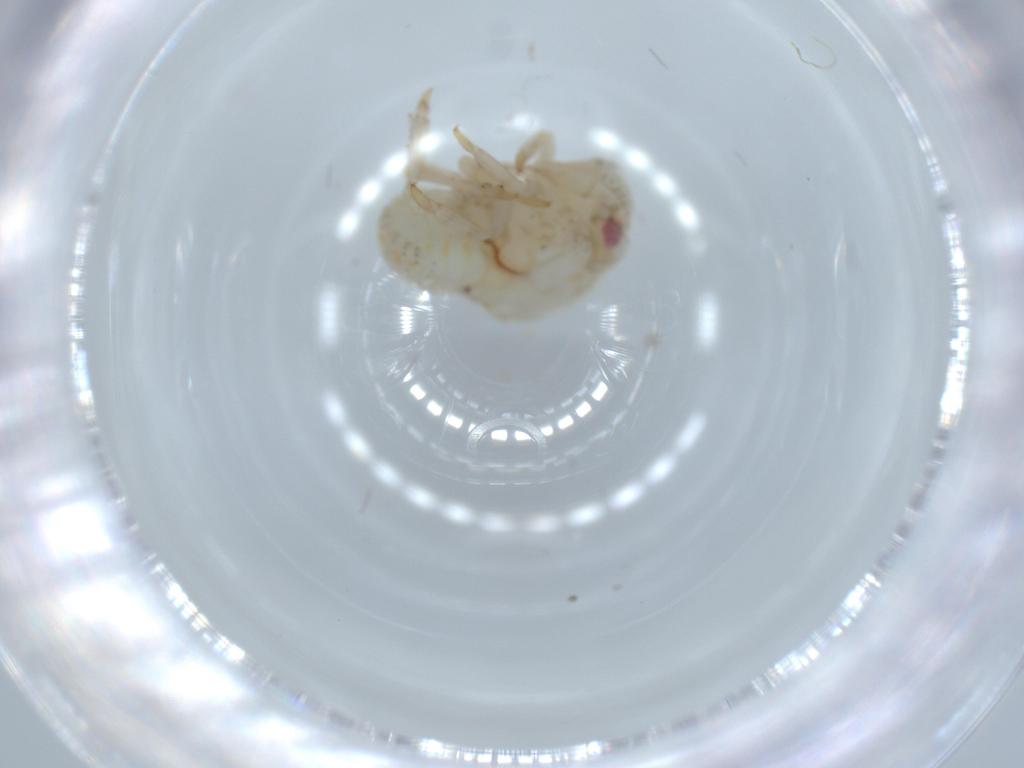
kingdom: Animalia
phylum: Arthropoda
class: Insecta
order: Hemiptera
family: Acanaloniidae
